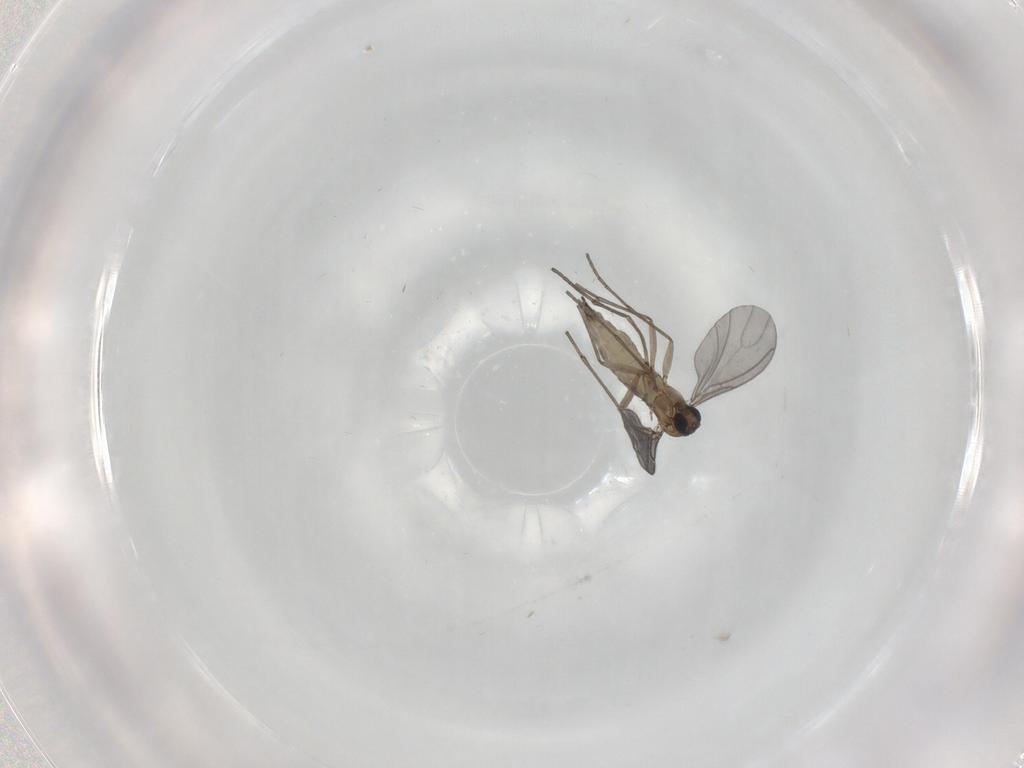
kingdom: Animalia
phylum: Arthropoda
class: Insecta
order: Diptera
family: Sciaridae
